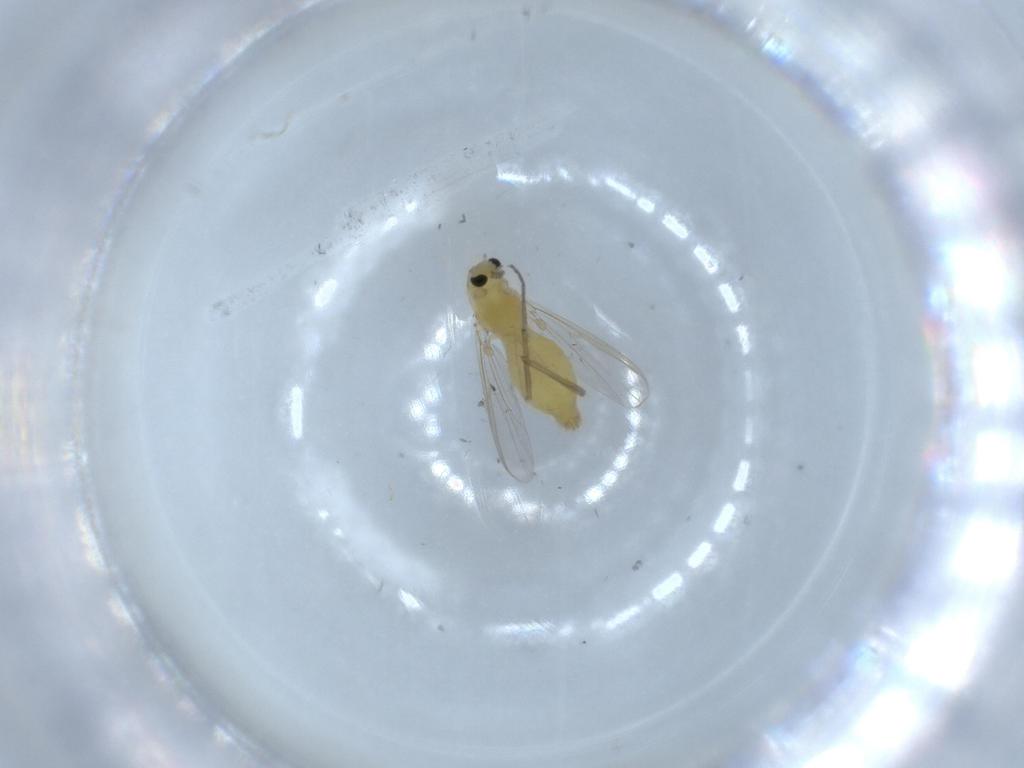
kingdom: Animalia
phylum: Arthropoda
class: Insecta
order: Diptera
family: Chironomidae
